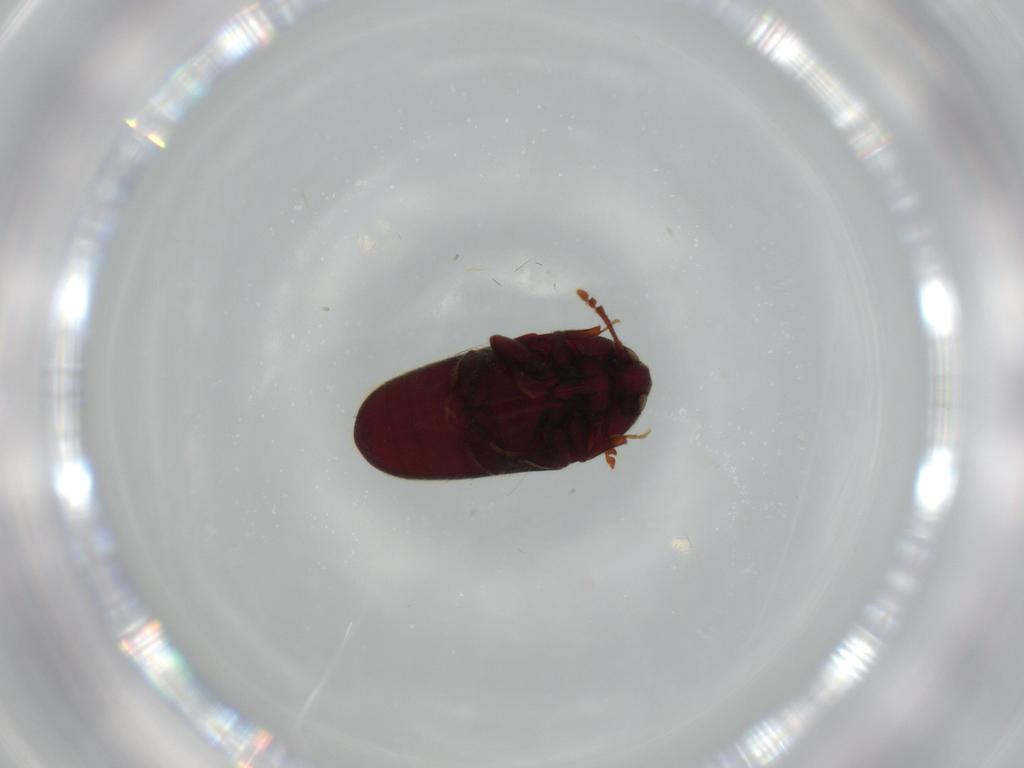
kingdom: Animalia
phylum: Arthropoda
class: Insecta
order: Coleoptera
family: Throscidae
